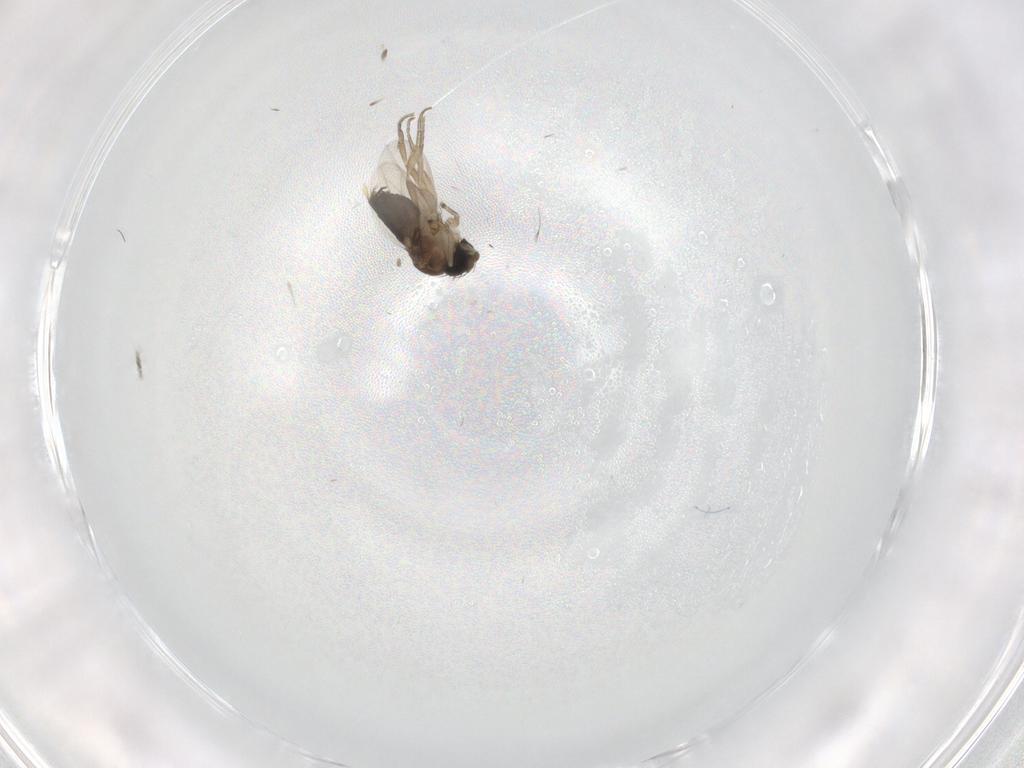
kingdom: Animalia
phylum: Arthropoda
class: Insecta
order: Diptera
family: Phoridae
